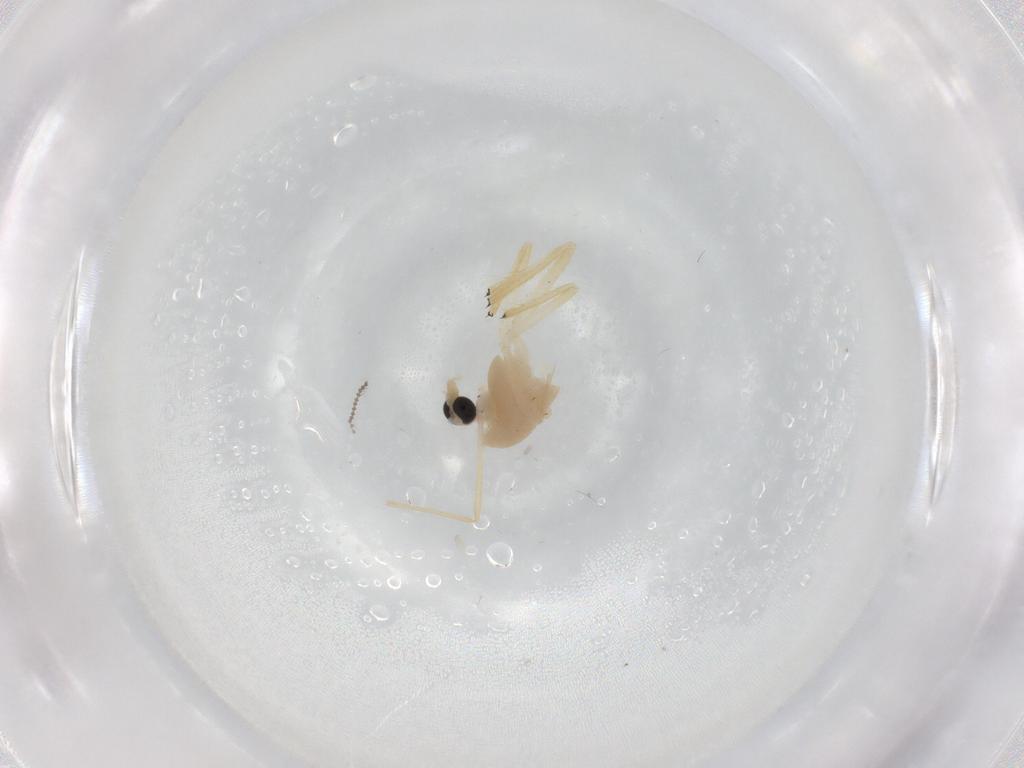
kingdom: Animalia
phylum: Arthropoda
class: Insecta
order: Diptera
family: Chironomidae
